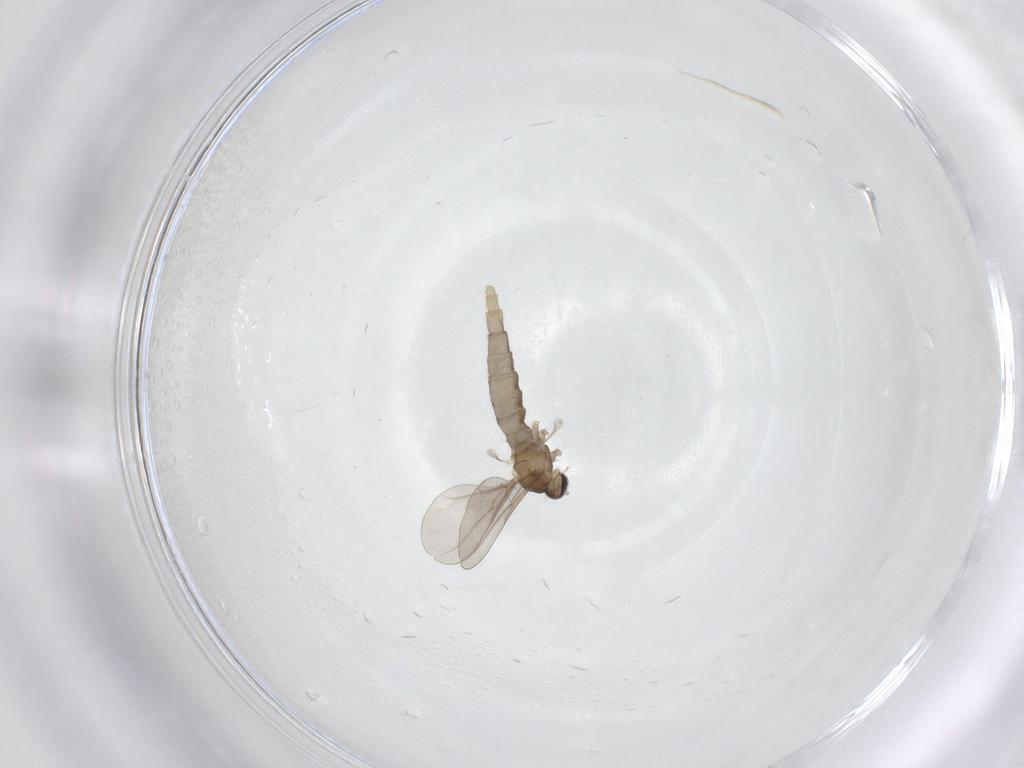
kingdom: Animalia
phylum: Arthropoda
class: Insecta
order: Diptera
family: Cecidomyiidae
